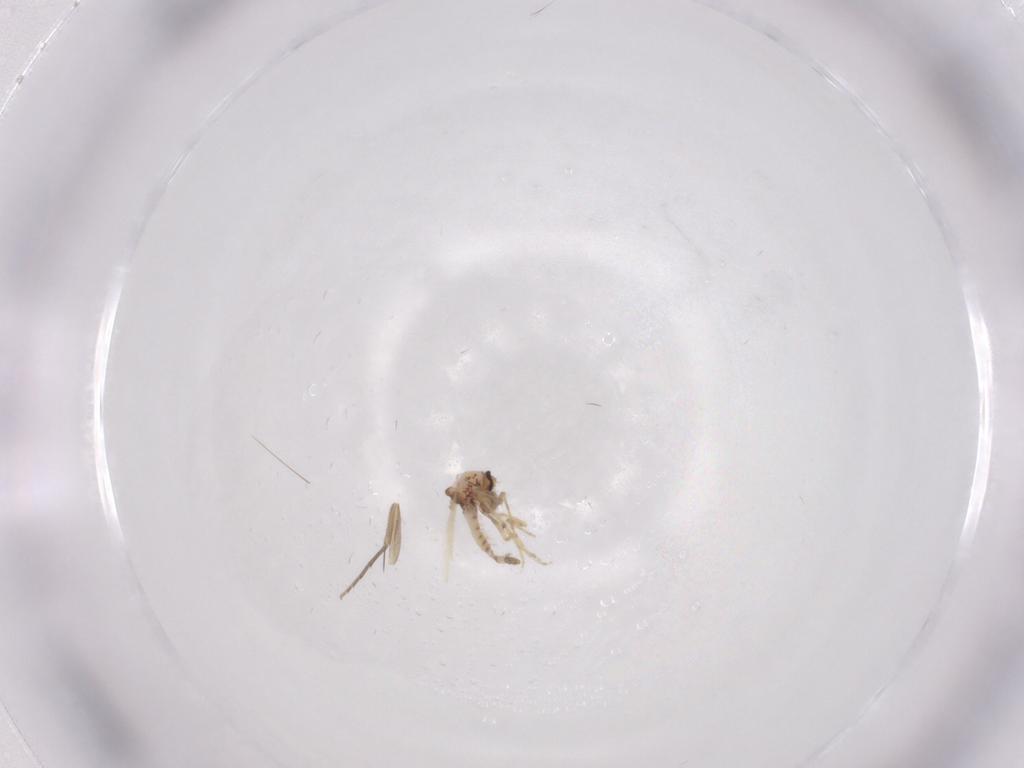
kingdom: Animalia
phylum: Arthropoda
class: Insecta
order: Diptera
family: Ceratopogonidae
